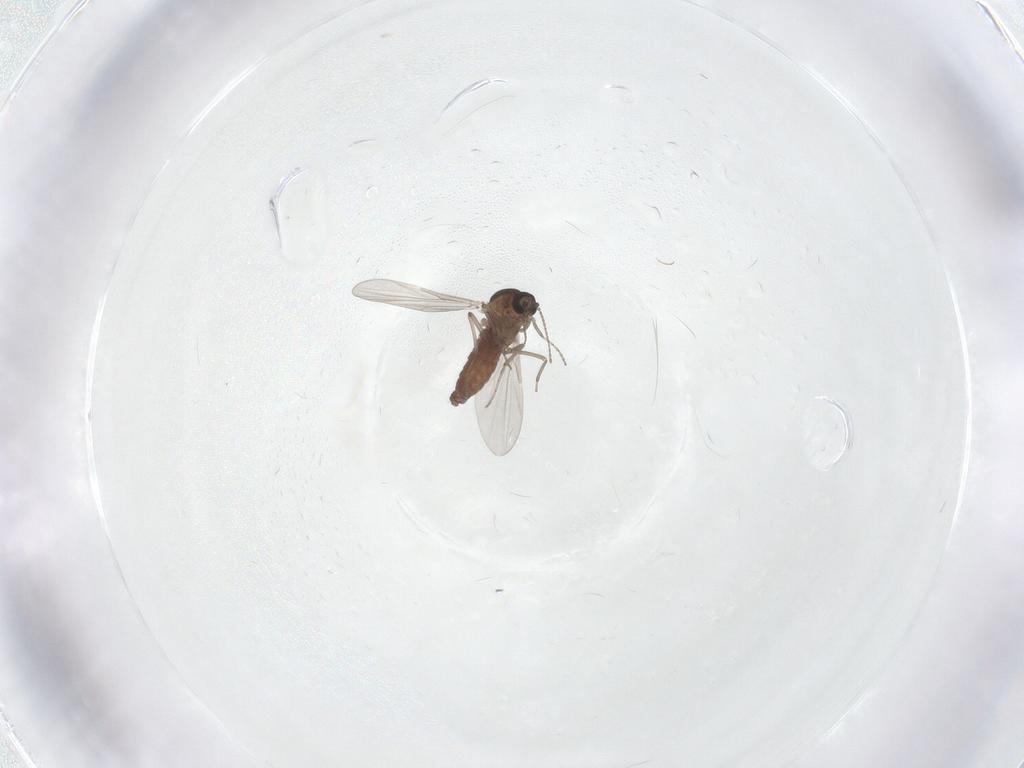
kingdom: Animalia
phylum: Arthropoda
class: Insecta
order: Diptera
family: Ceratopogonidae
